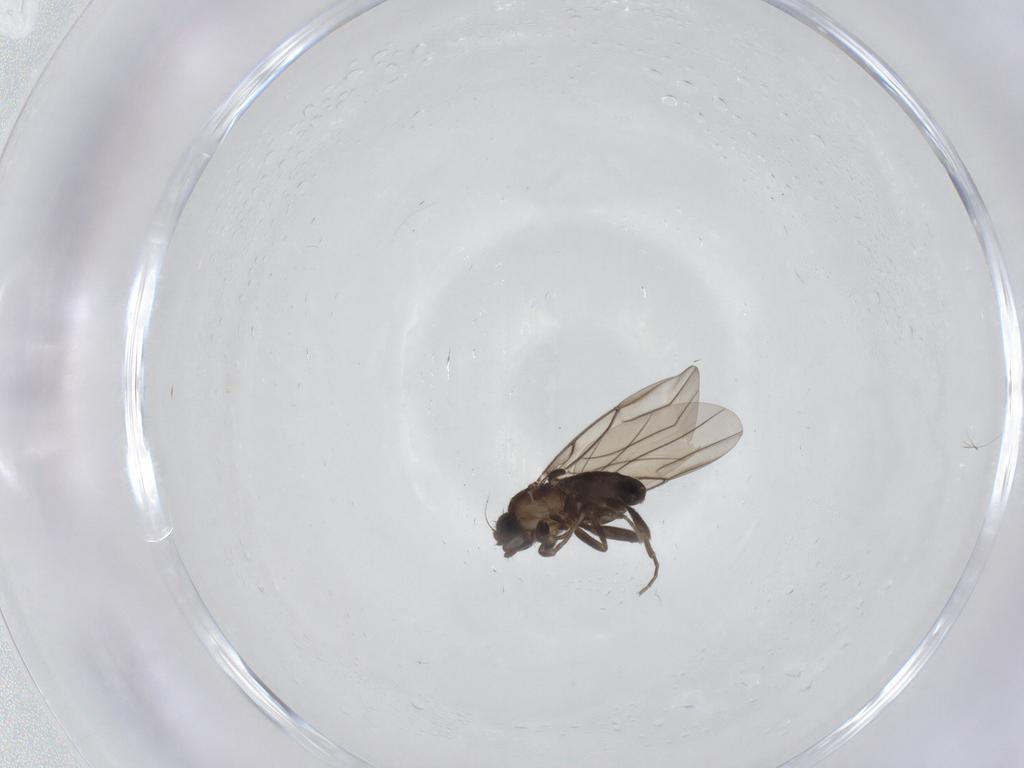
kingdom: Animalia
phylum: Arthropoda
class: Insecta
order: Diptera
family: Phoridae
